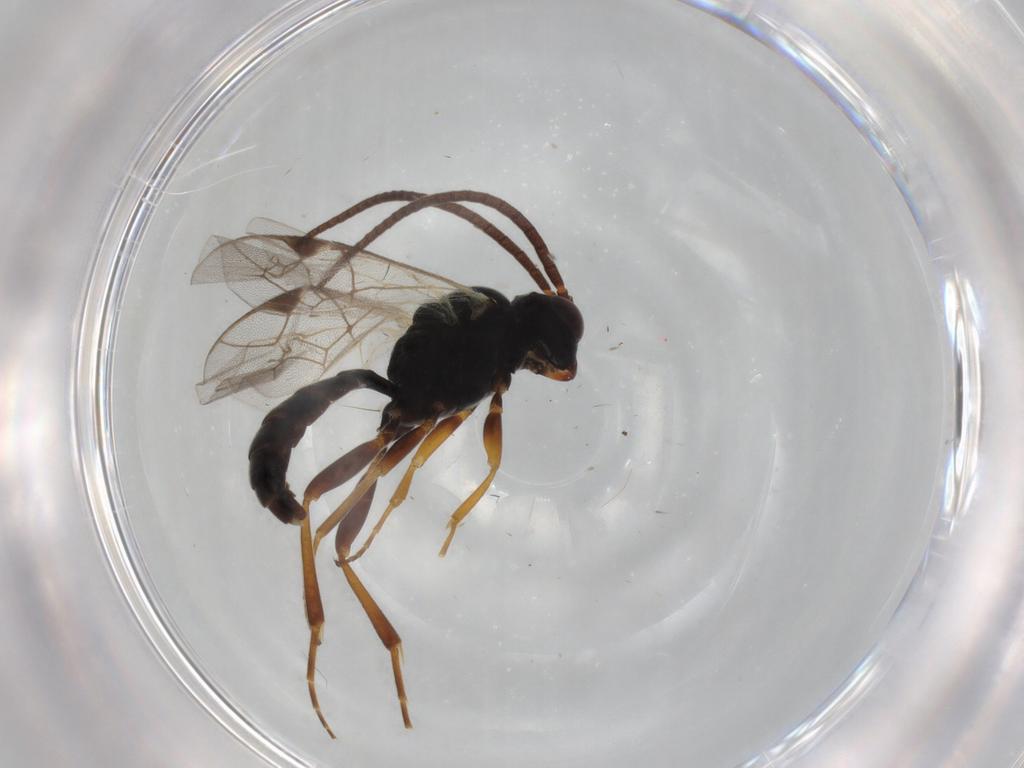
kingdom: Animalia
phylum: Arthropoda
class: Insecta
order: Hymenoptera
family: Ichneumonidae
